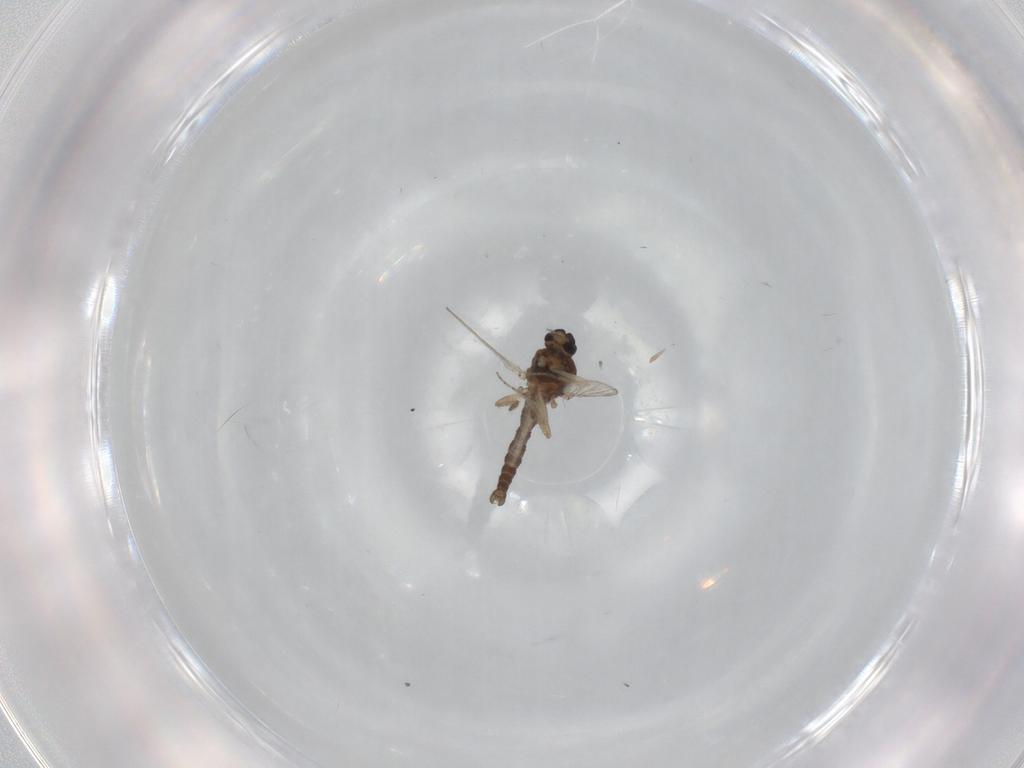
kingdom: Animalia
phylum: Arthropoda
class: Insecta
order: Diptera
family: Ceratopogonidae
